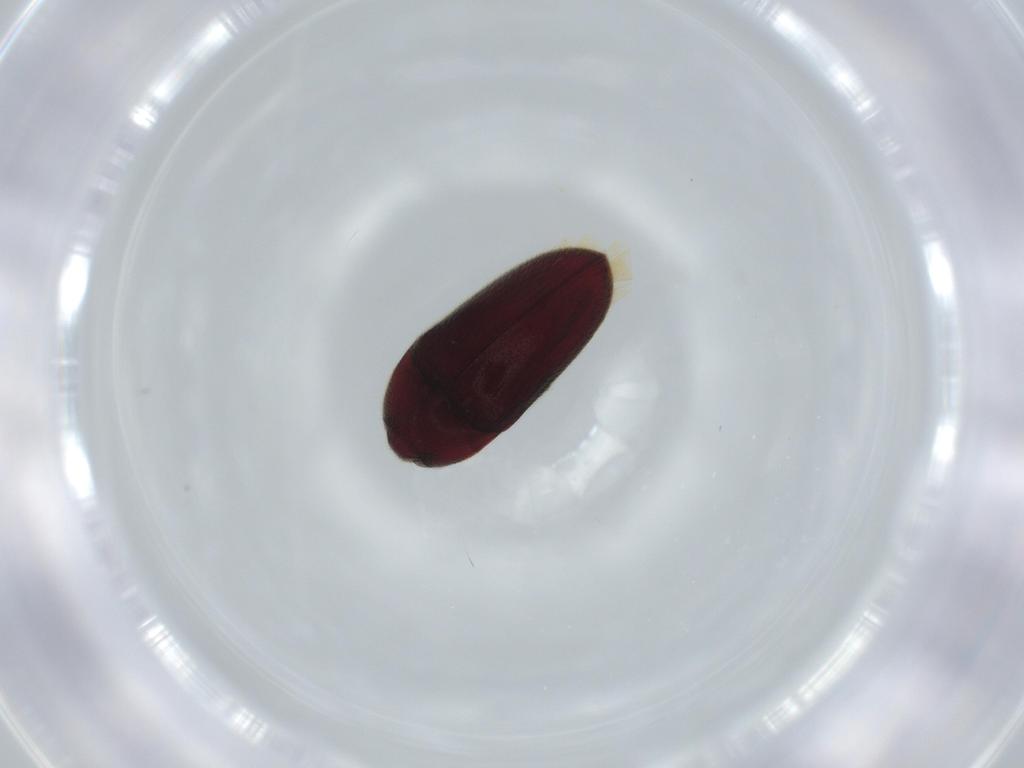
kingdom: Animalia
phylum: Arthropoda
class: Insecta
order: Coleoptera
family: Throscidae
